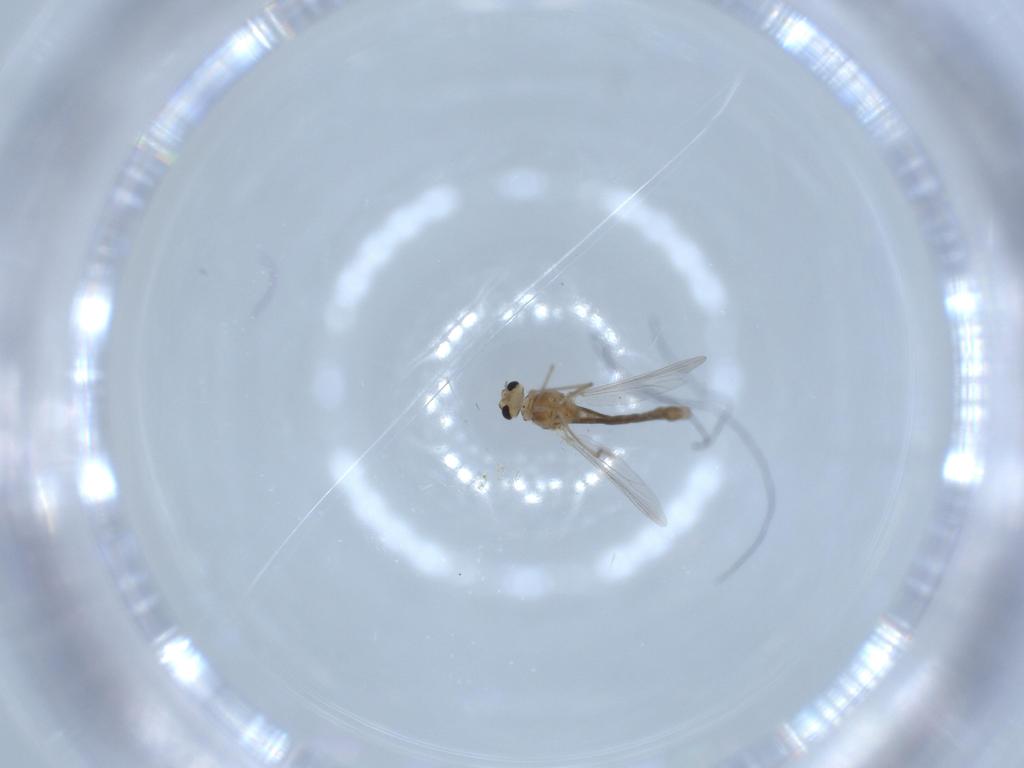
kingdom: Animalia
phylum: Arthropoda
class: Insecta
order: Diptera
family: Chironomidae
